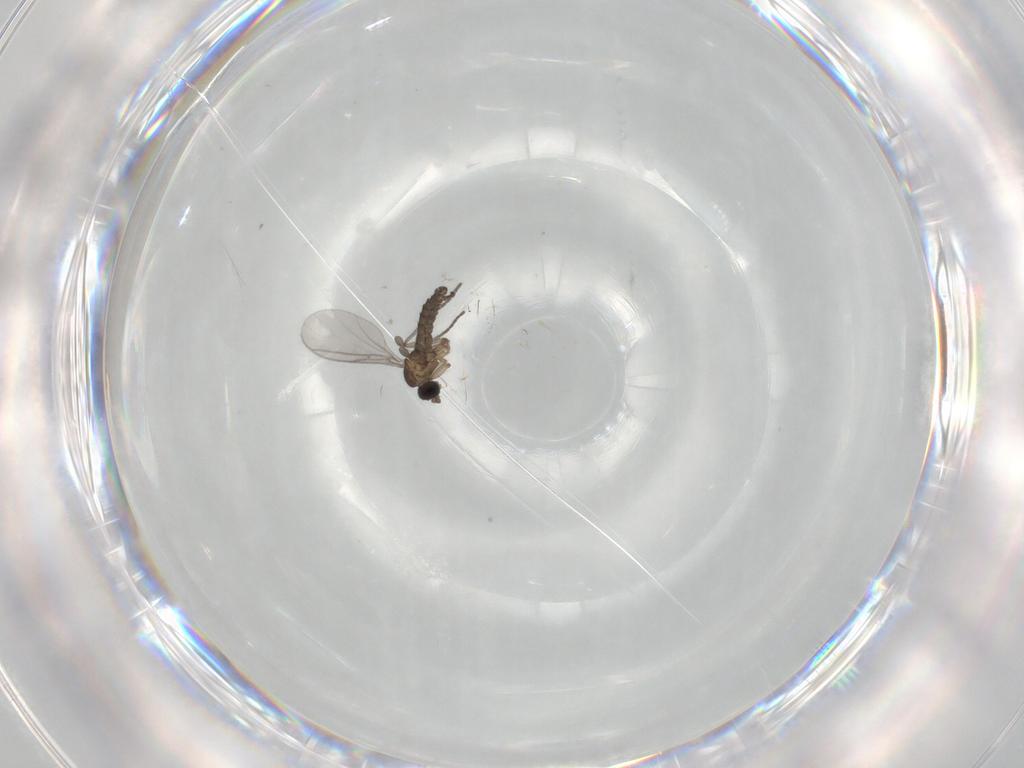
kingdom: Animalia
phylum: Arthropoda
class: Insecta
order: Diptera
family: Sciaridae
